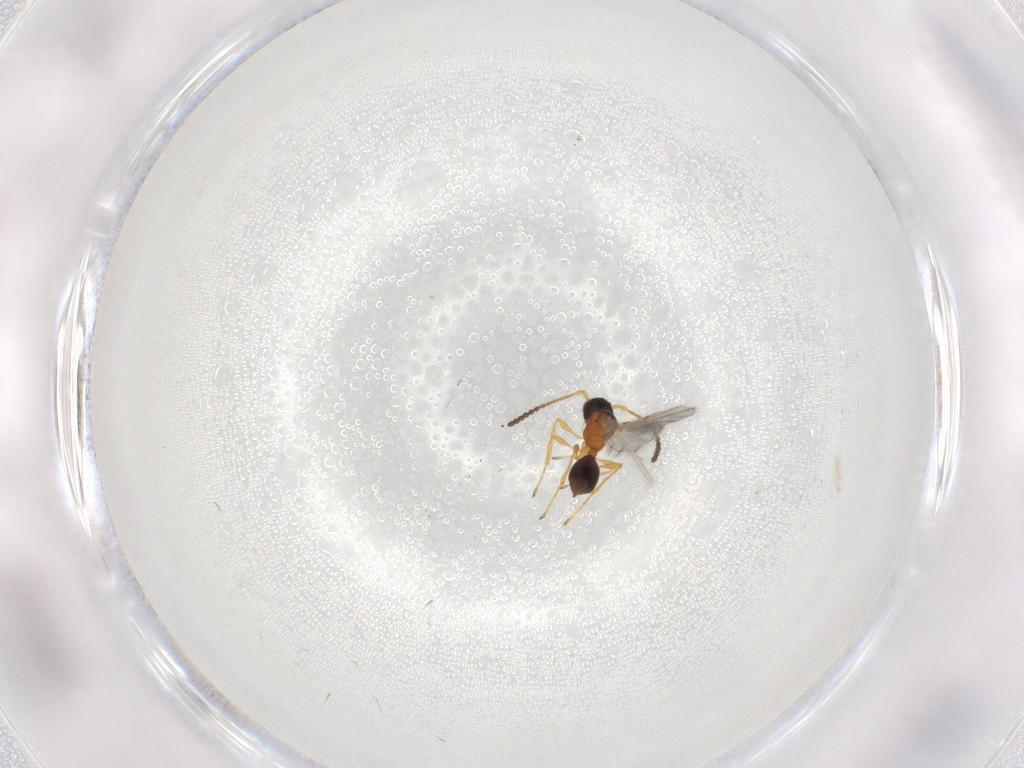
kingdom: Animalia
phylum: Arthropoda
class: Insecta
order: Hymenoptera
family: Diapriidae
